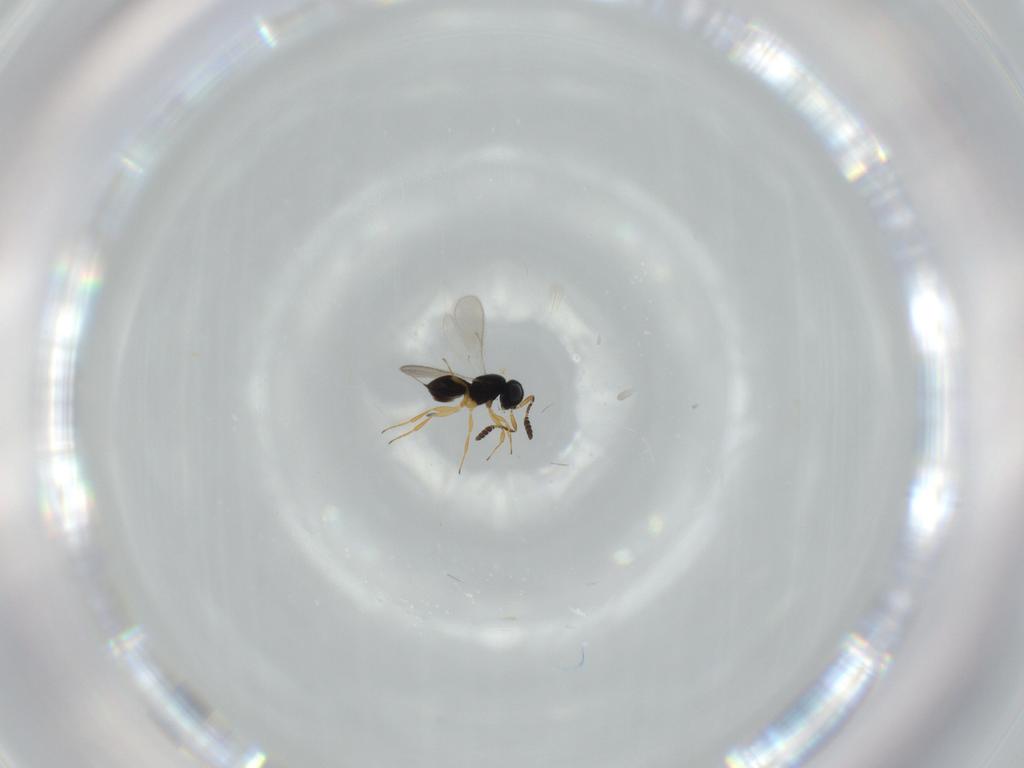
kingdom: Animalia
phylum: Arthropoda
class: Insecta
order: Hymenoptera
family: Scelionidae
